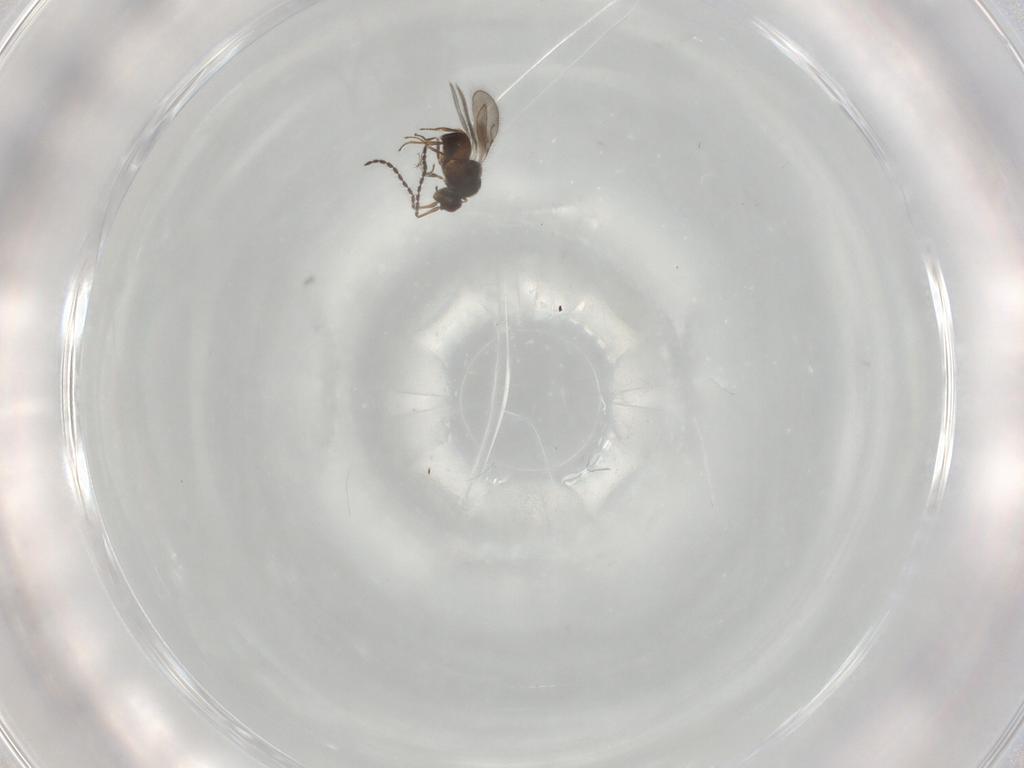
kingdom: Animalia
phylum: Arthropoda
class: Insecta
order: Hymenoptera
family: Ceraphronidae
